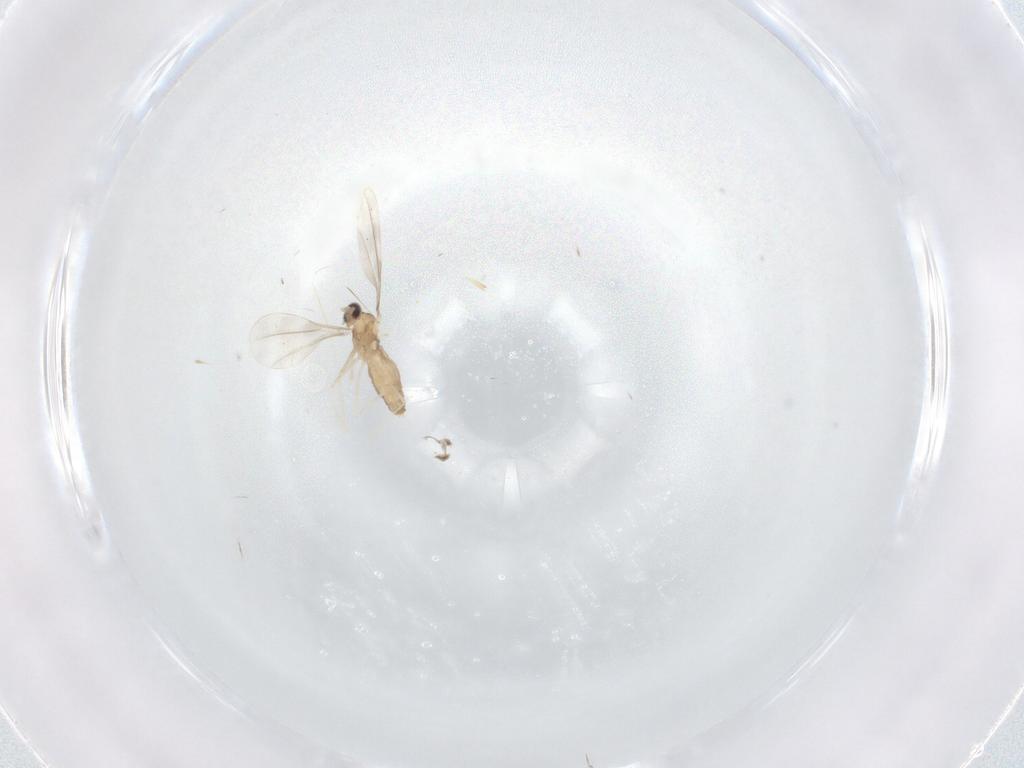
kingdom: Animalia
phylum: Arthropoda
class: Insecta
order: Diptera
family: Cecidomyiidae
